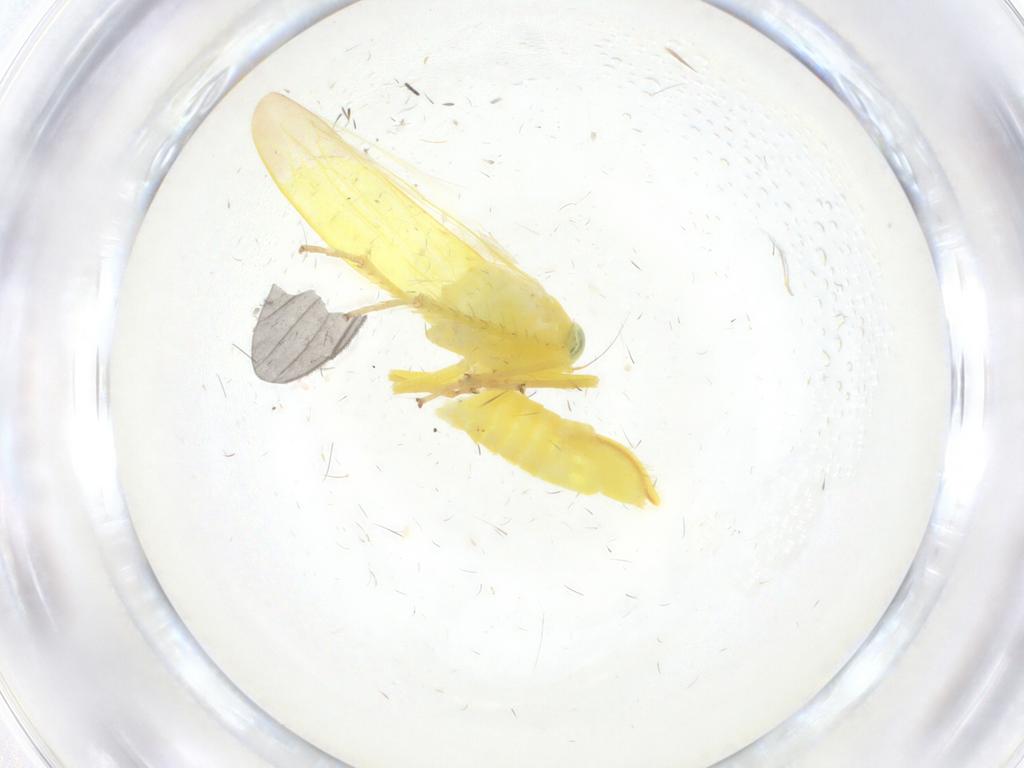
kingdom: Animalia
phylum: Arthropoda
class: Insecta
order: Hemiptera
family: Cicadellidae
